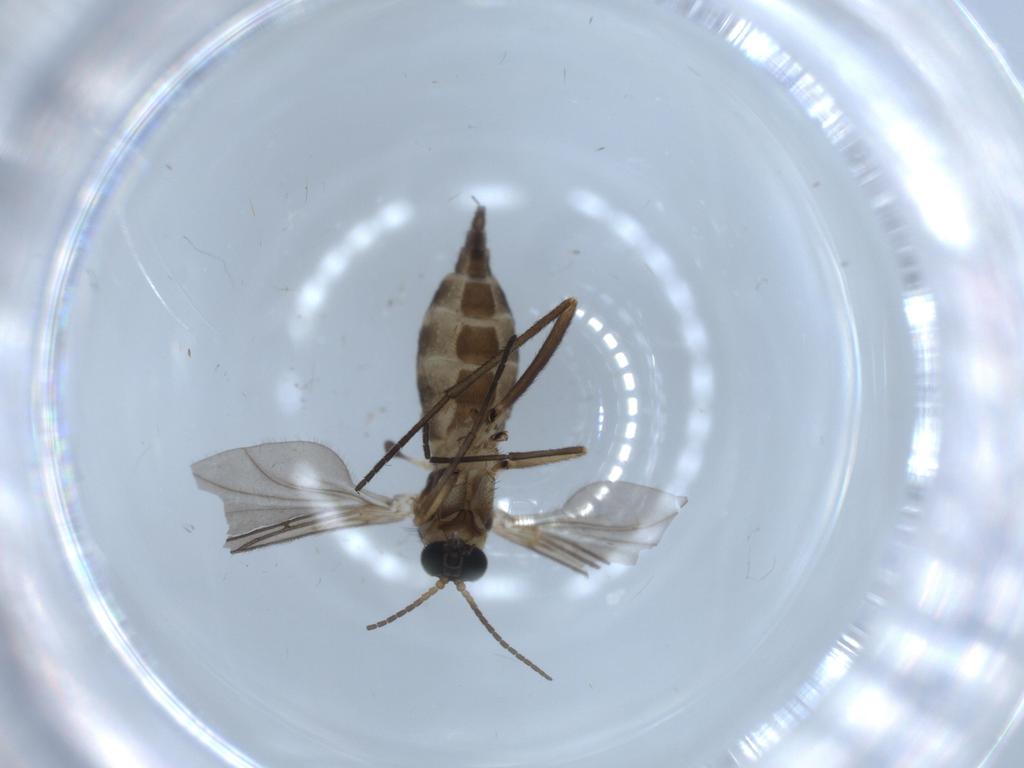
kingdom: Animalia
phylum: Arthropoda
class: Insecta
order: Diptera
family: Sciaridae
